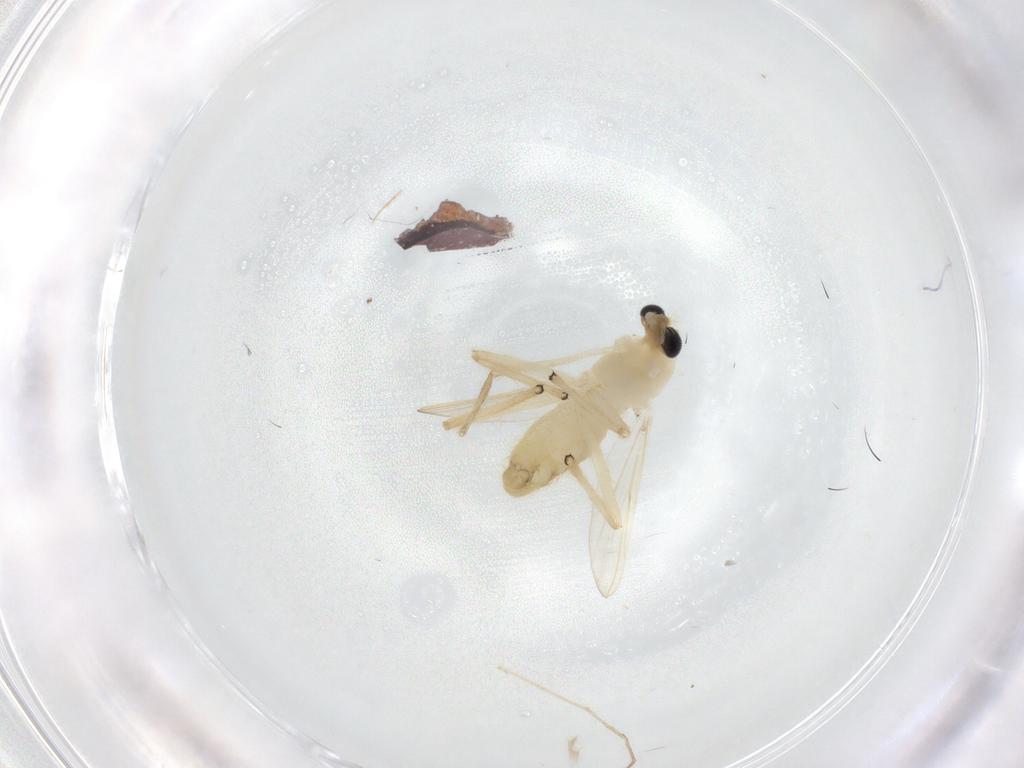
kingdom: Animalia
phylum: Arthropoda
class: Insecta
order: Diptera
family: Chironomidae
